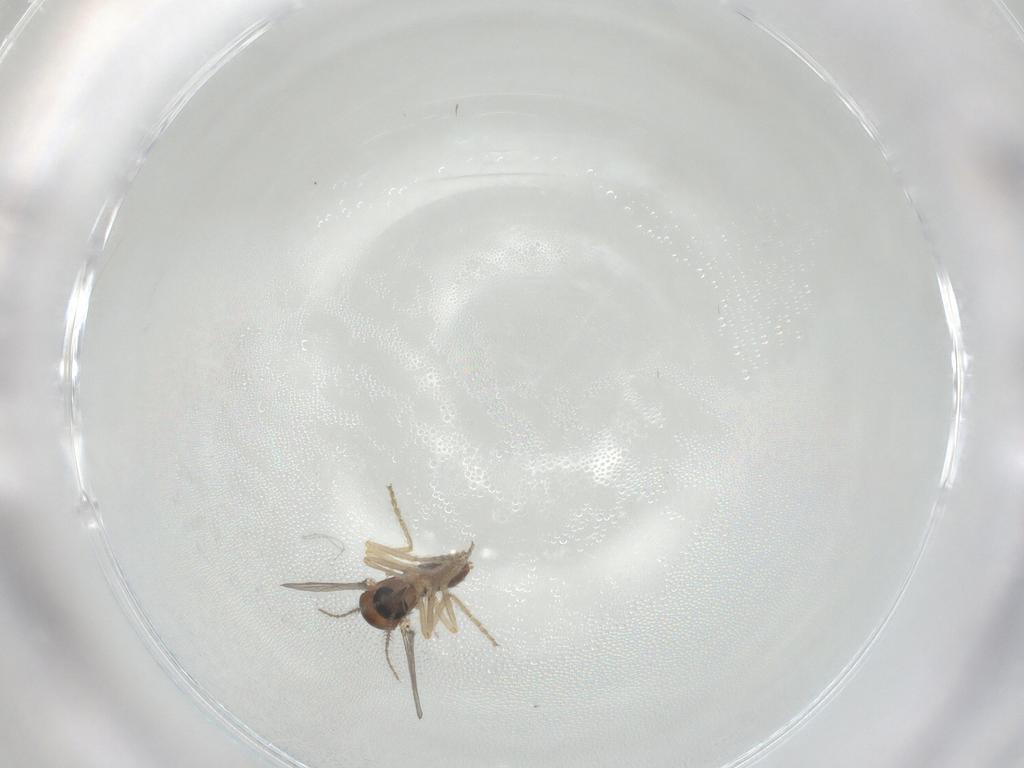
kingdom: Animalia
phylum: Arthropoda
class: Insecta
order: Diptera
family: Ceratopogonidae
